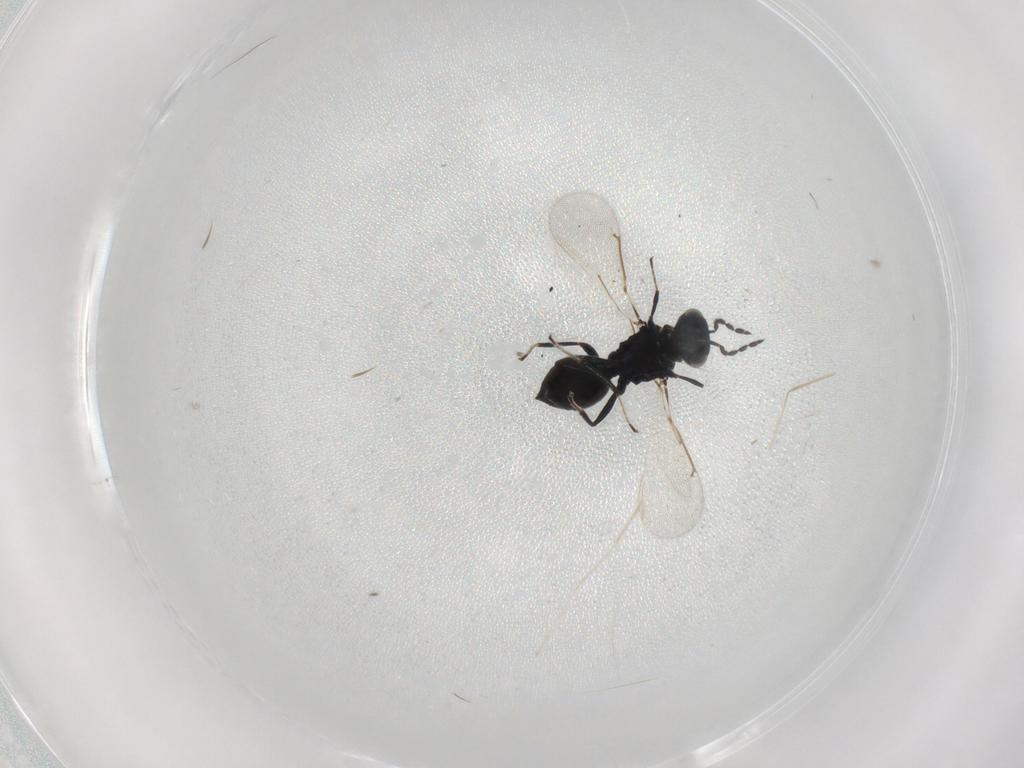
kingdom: Animalia
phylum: Arthropoda
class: Insecta
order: Hymenoptera
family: Eulophidae
